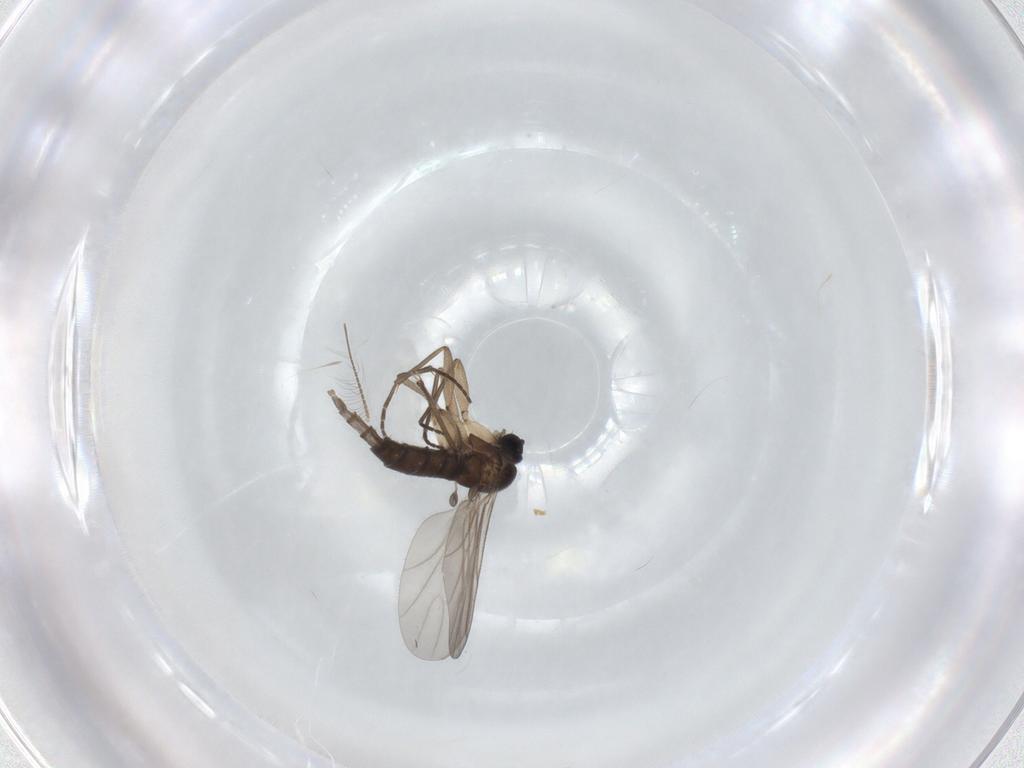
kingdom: Animalia
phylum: Arthropoda
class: Insecta
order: Diptera
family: Sciaridae
